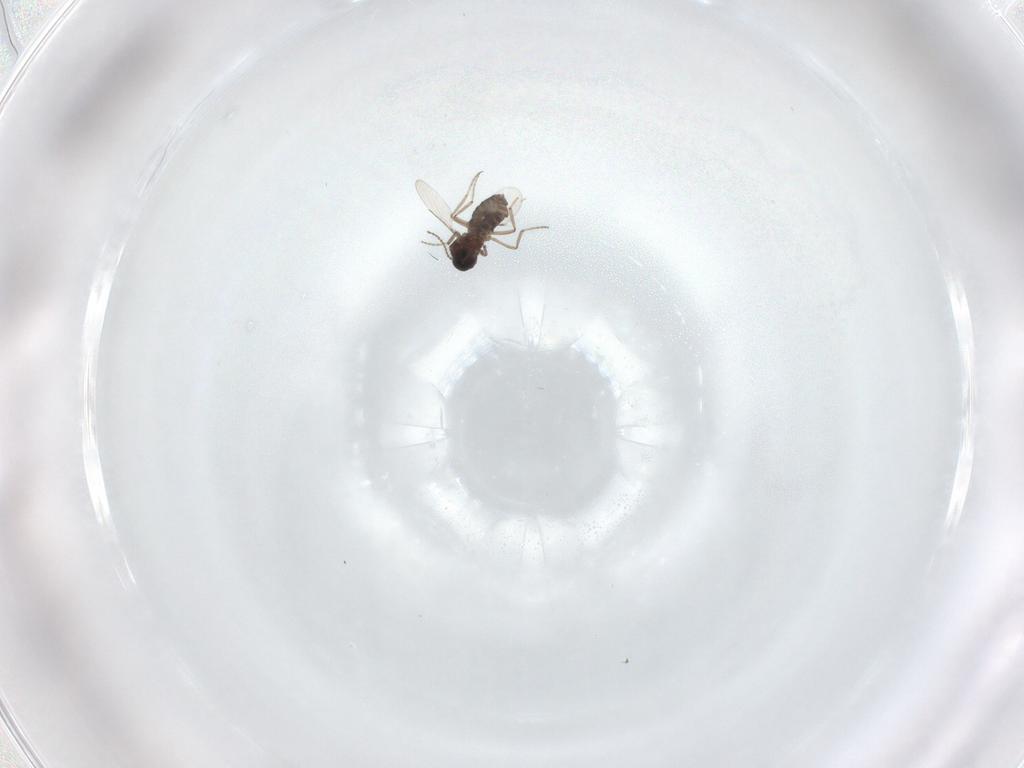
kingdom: Animalia
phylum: Arthropoda
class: Insecta
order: Diptera
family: Ceratopogonidae
